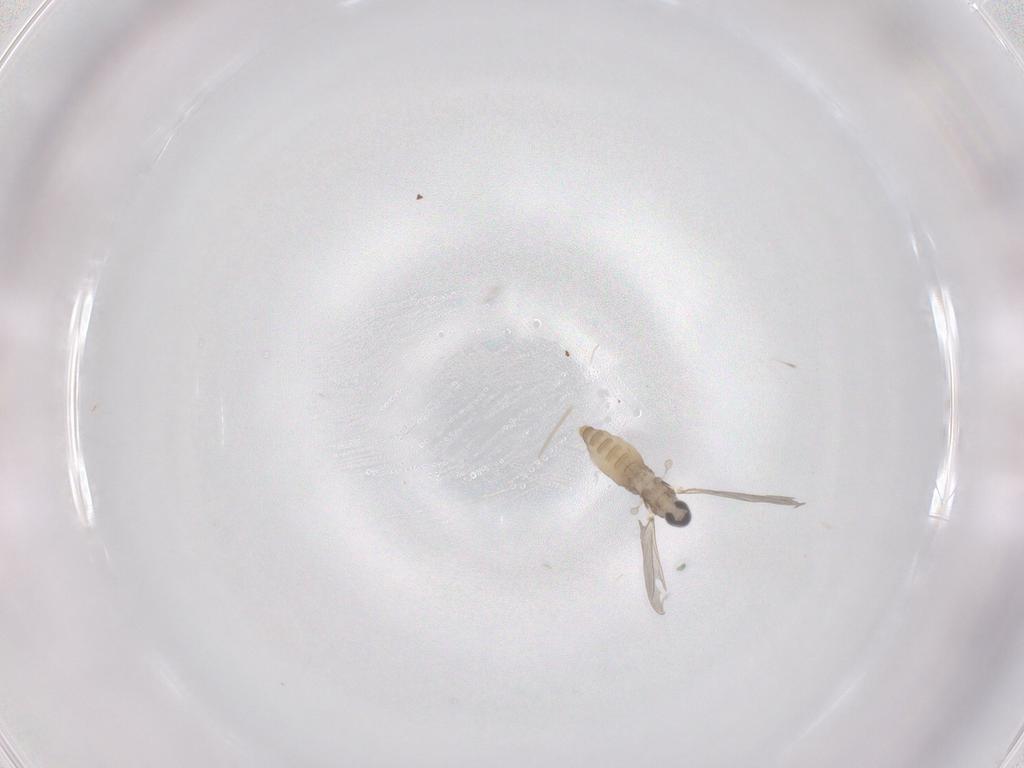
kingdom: Animalia
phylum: Arthropoda
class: Insecta
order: Diptera
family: Cecidomyiidae
